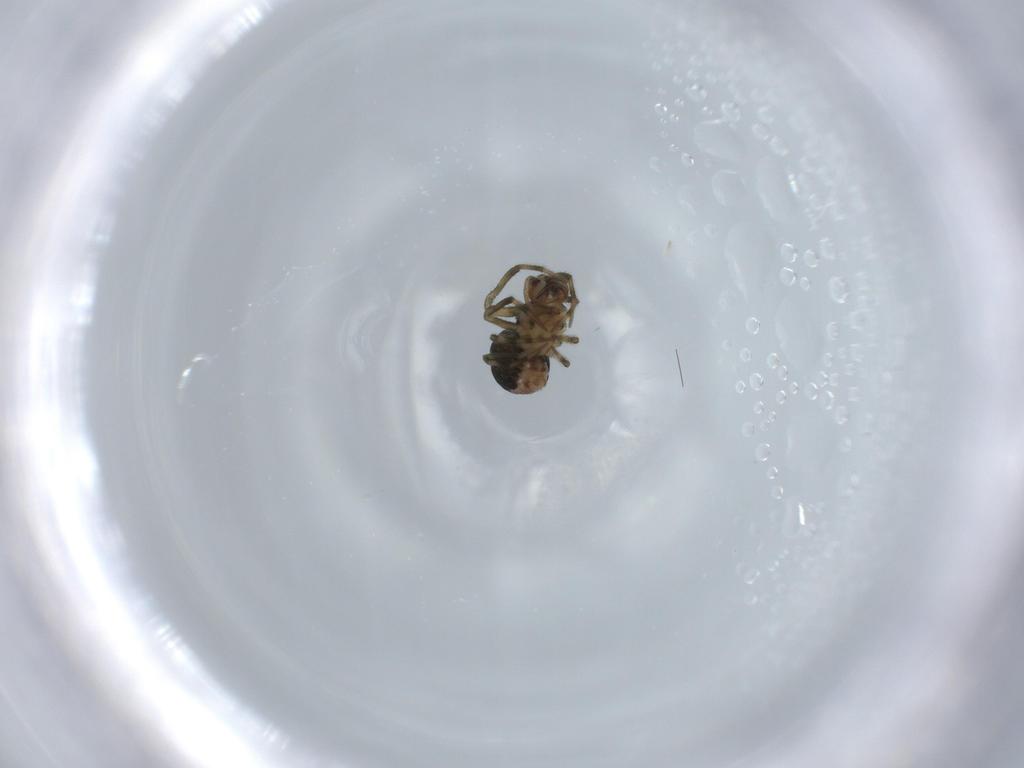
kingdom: Animalia
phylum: Arthropoda
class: Arachnida
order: Araneae
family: Mysmenidae
